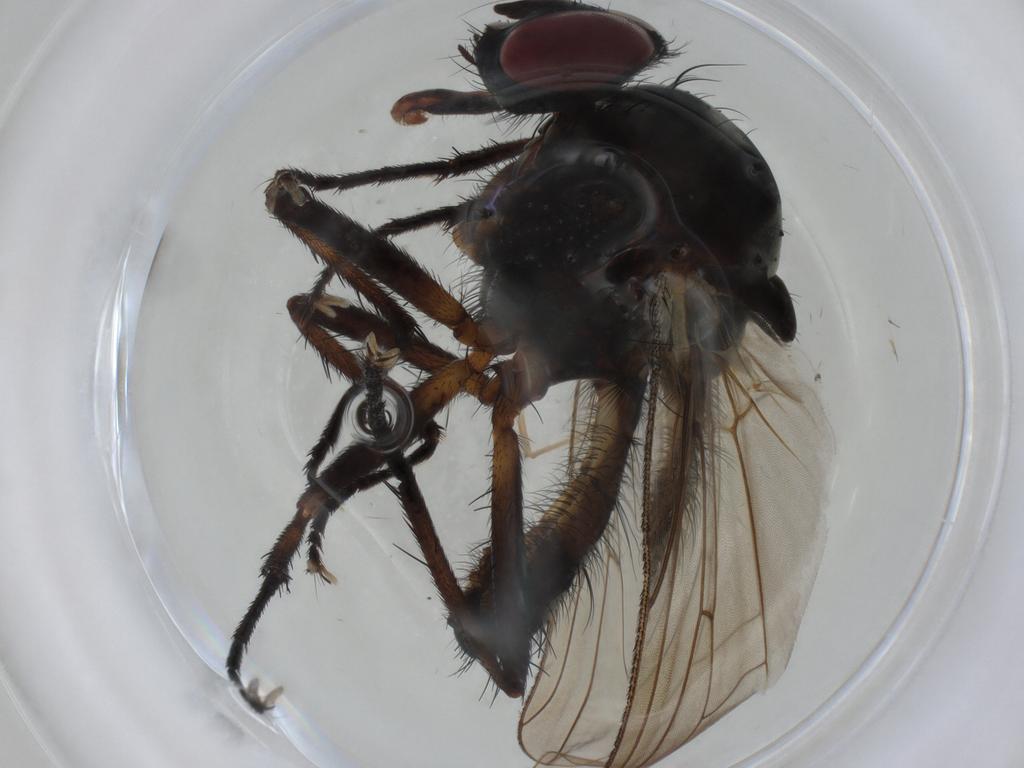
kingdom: Animalia
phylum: Arthropoda
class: Insecta
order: Diptera
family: Anthomyiidae
